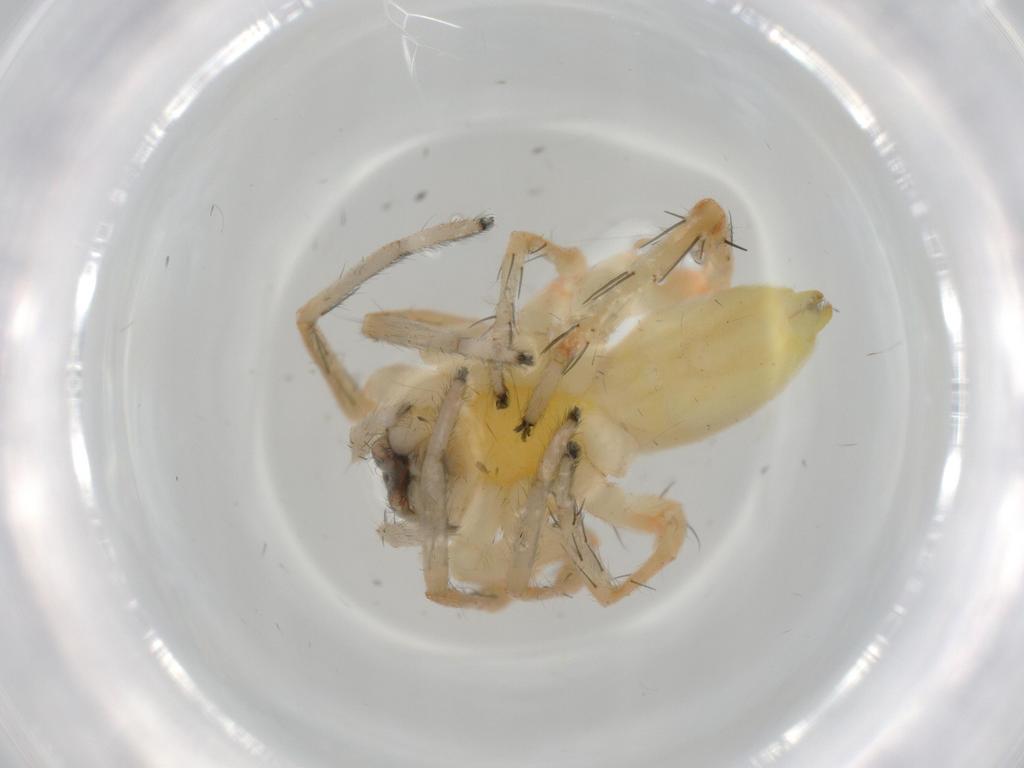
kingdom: Animalia
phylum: Arthropoda
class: Arachnida
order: Araneae
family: Anyphaenidae
